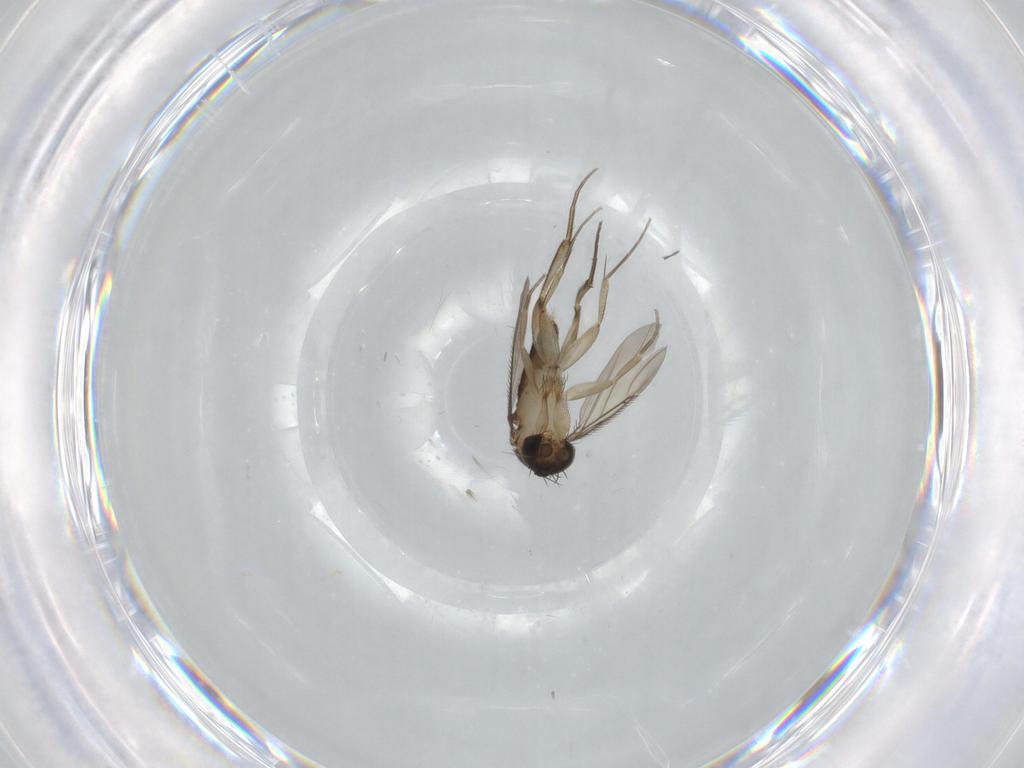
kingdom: Animalia
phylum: Arthropoda
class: Insecta
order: Diptera
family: Phoridae
